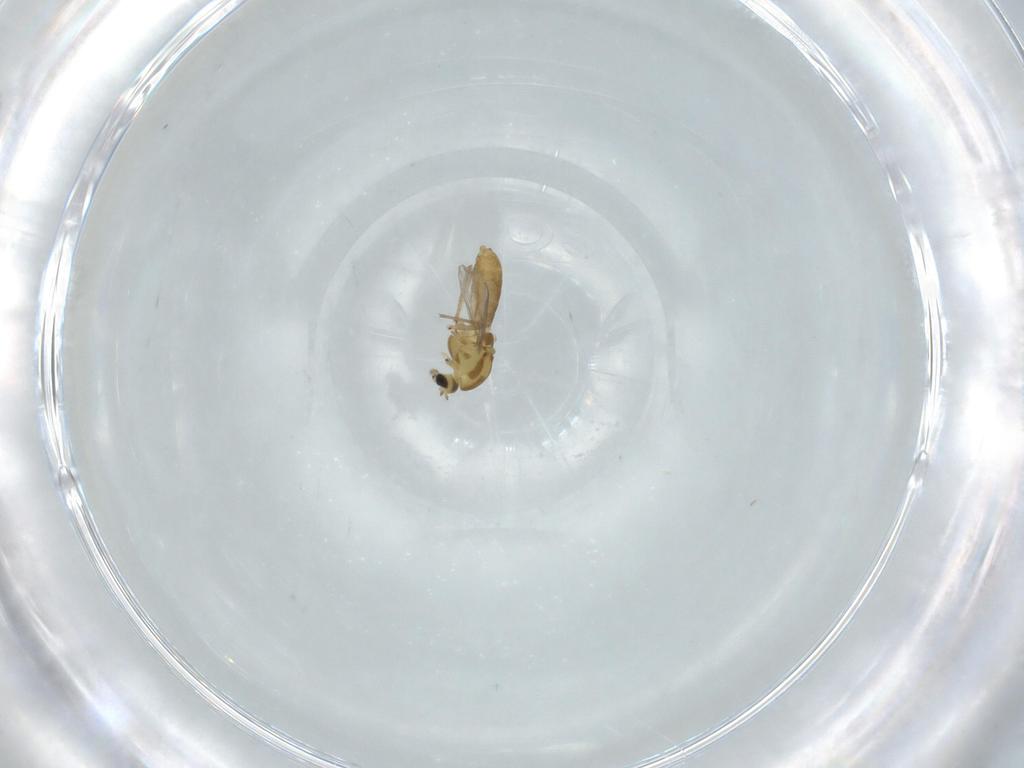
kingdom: Animalia
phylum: Arthropoda
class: Insecta
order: Diptera
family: Chironomidae
